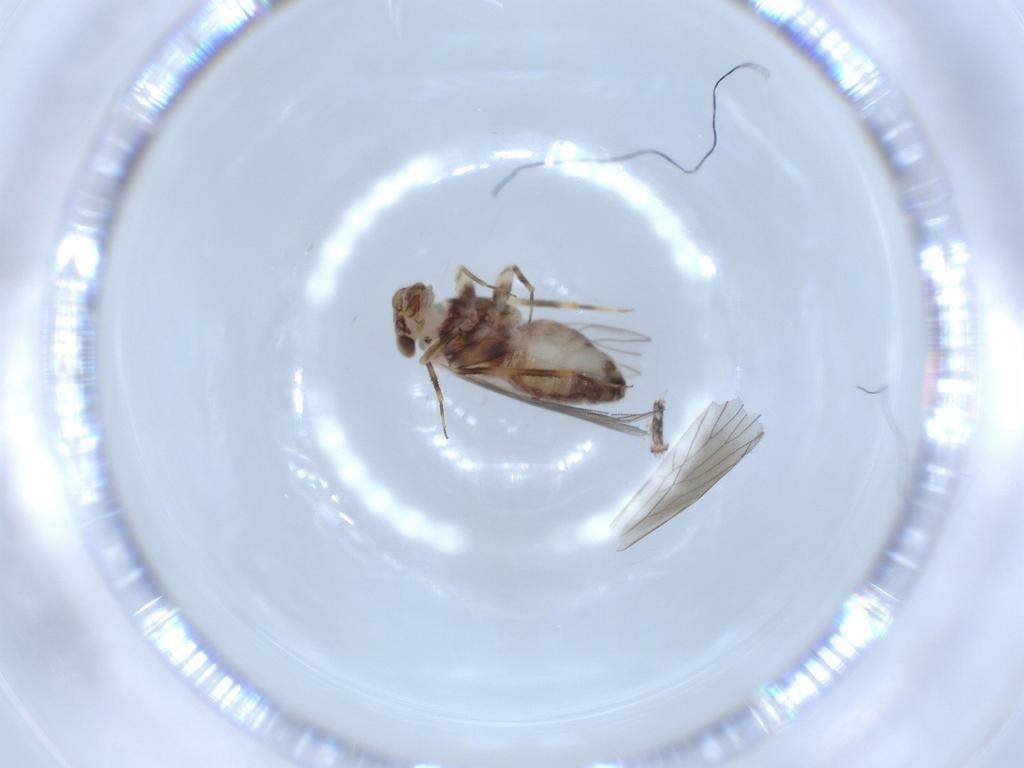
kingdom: Animalia
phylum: Arthropoda
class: Insecta
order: Psocodea
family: Lepidopsocidae
